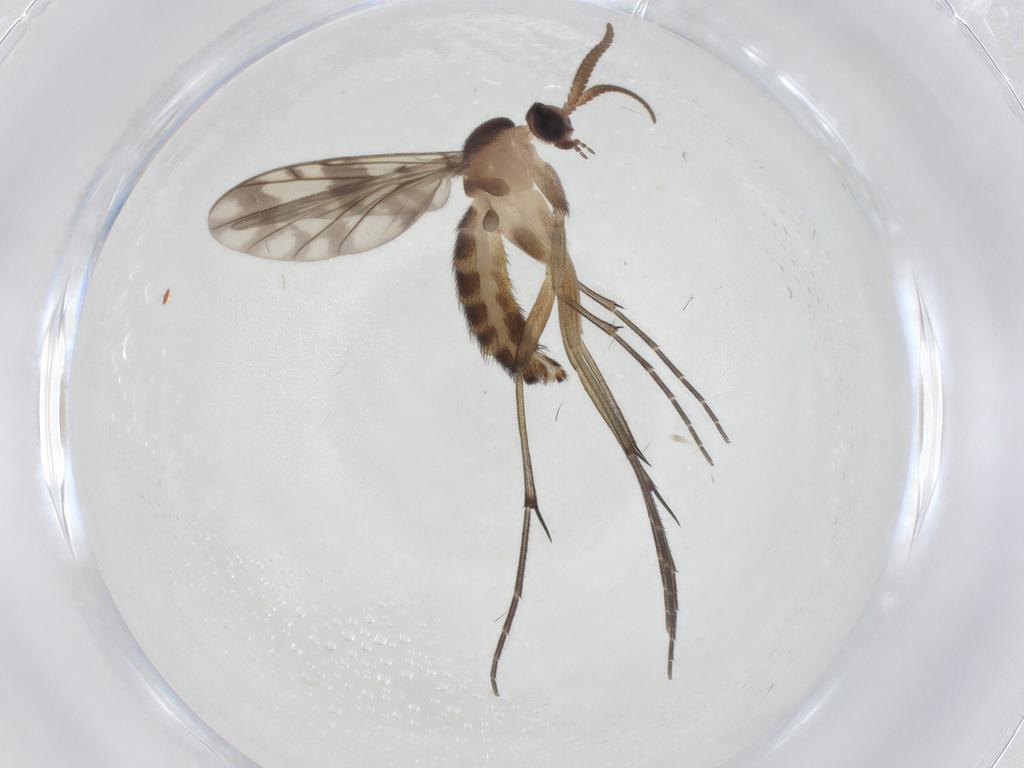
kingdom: Animalia
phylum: Arthropoda
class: Insecta
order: Diptera
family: Keroplatidae
